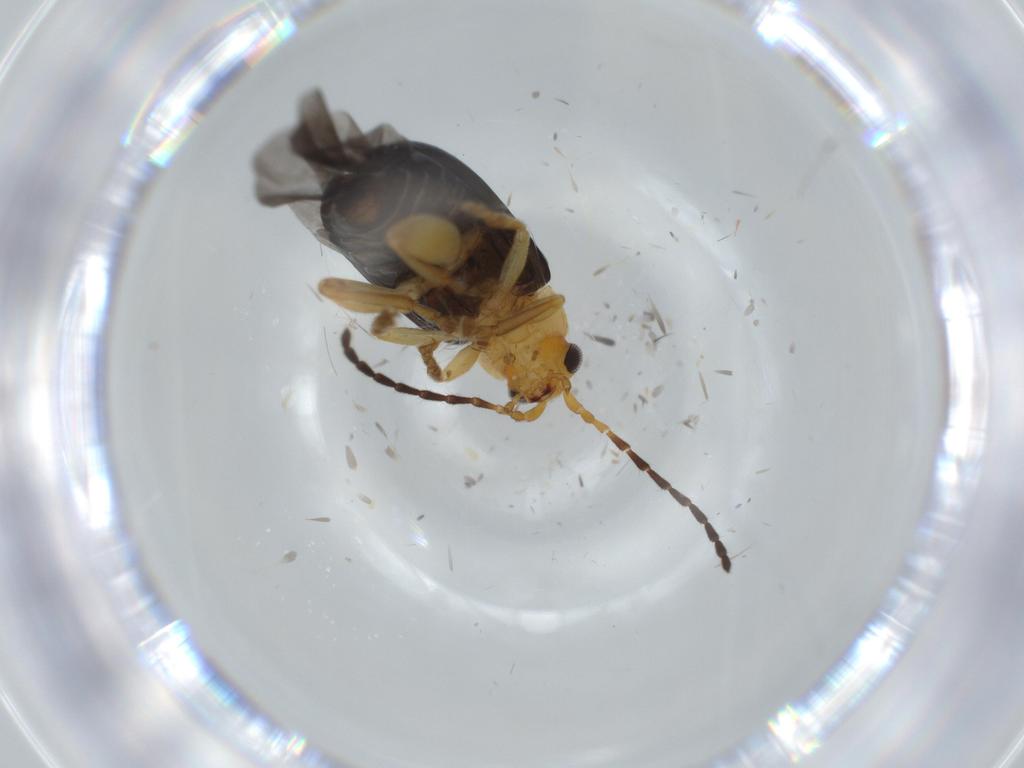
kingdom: Animalia
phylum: Arthropoda
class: Insecta
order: Coleoptera
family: Chrysomelidae
